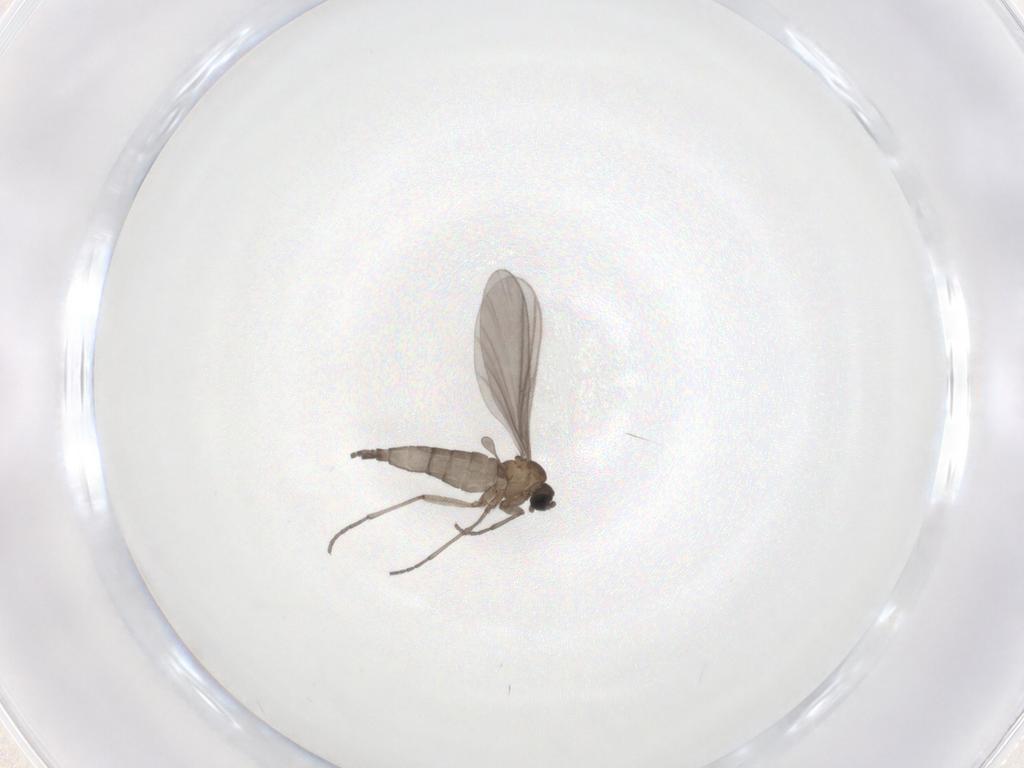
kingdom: Animalia
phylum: Arthropoda
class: Insecta
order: Diptera
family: Sciaridae
